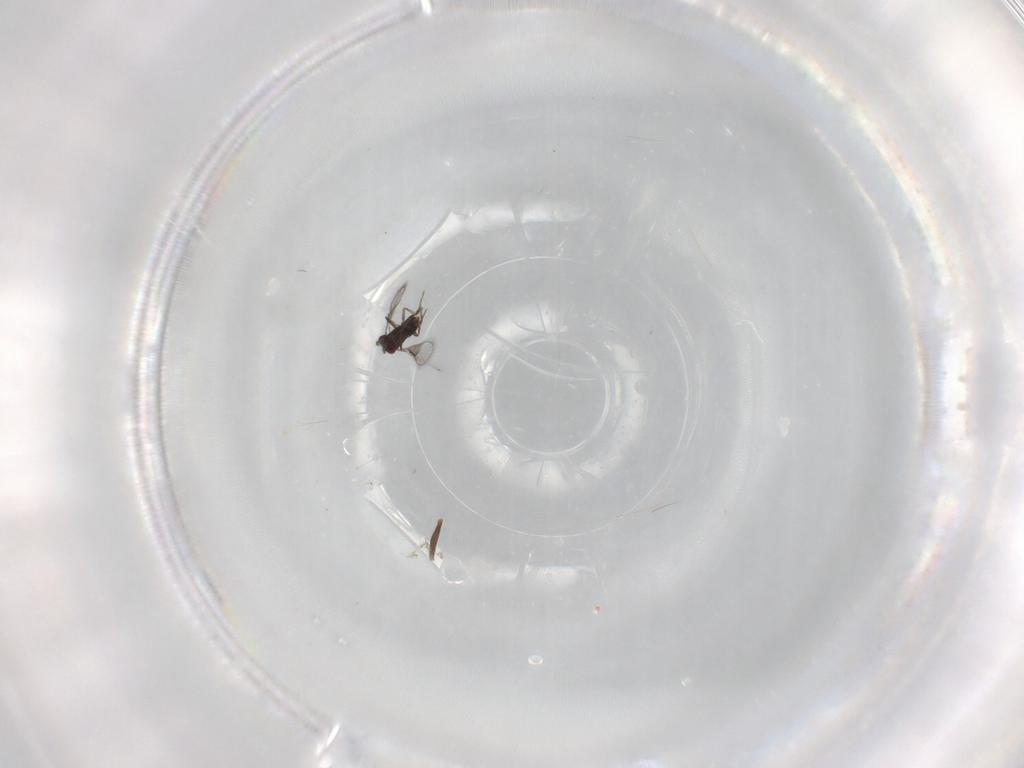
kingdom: Animalia
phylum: Arthropoda
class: Insecta
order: Hymenoptera
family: Trichogrammatidae
